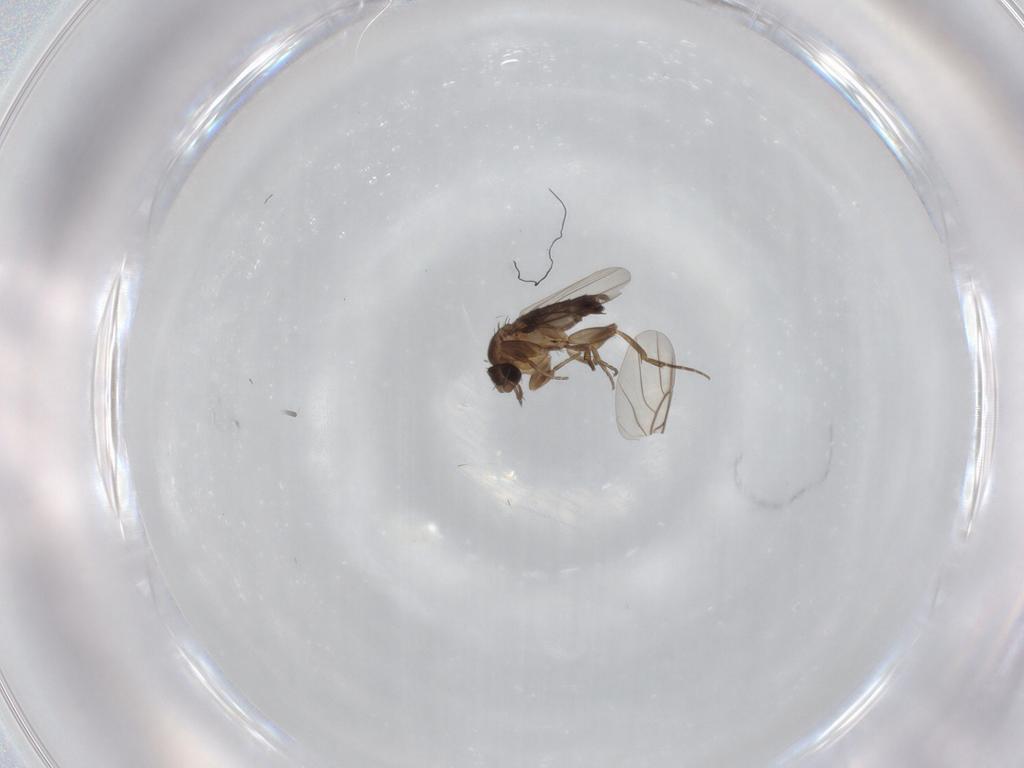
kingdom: Animalia
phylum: Arthropoda
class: Insecta
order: Diptera
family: Phoridae
